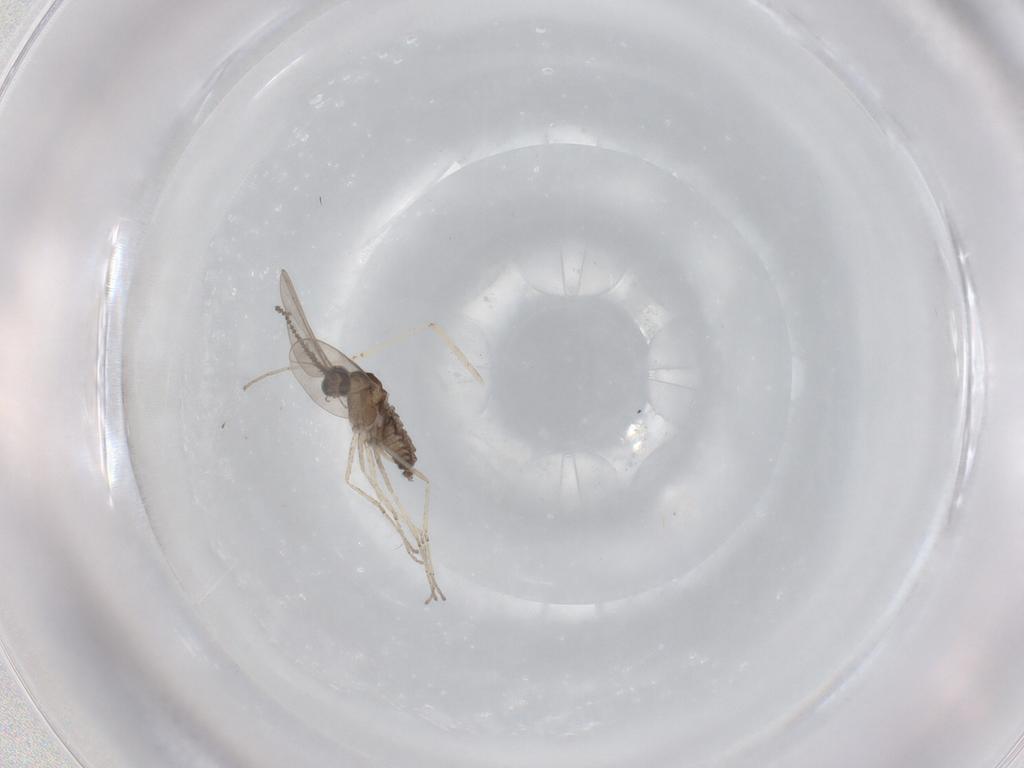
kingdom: Animalia
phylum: Arthropoda
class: Insecta
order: Diptera
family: Cecidomyiidae
